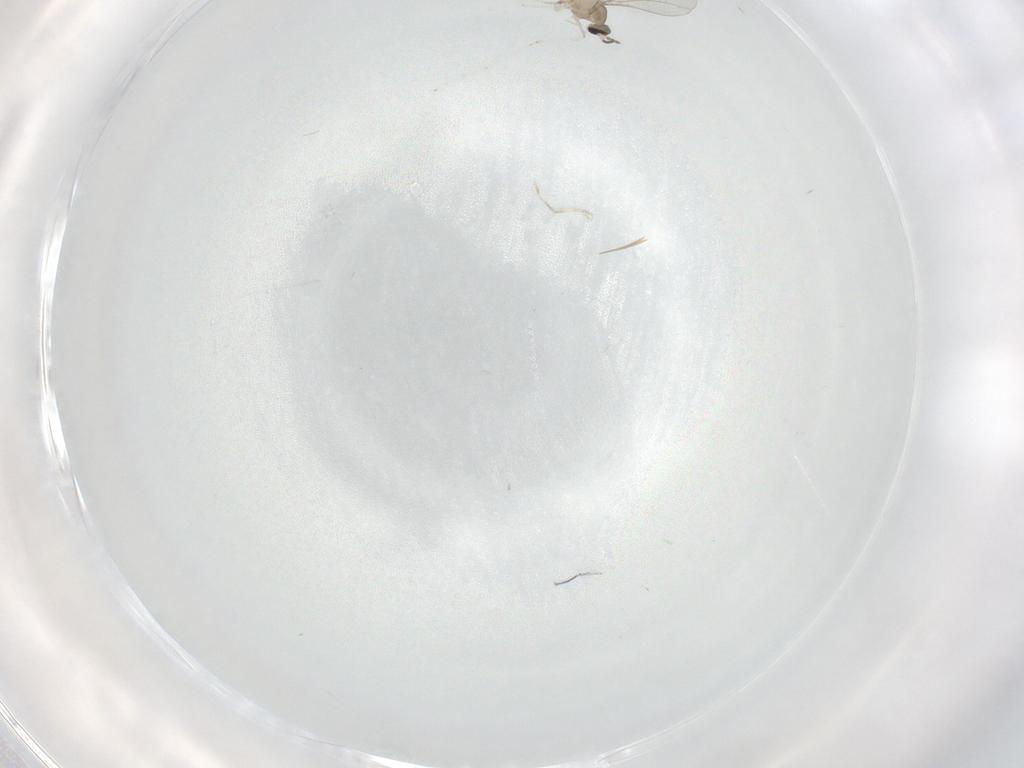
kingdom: Animalia
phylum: Arthropoda
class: Insecta
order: Diptera
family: Cecidomyiidae
